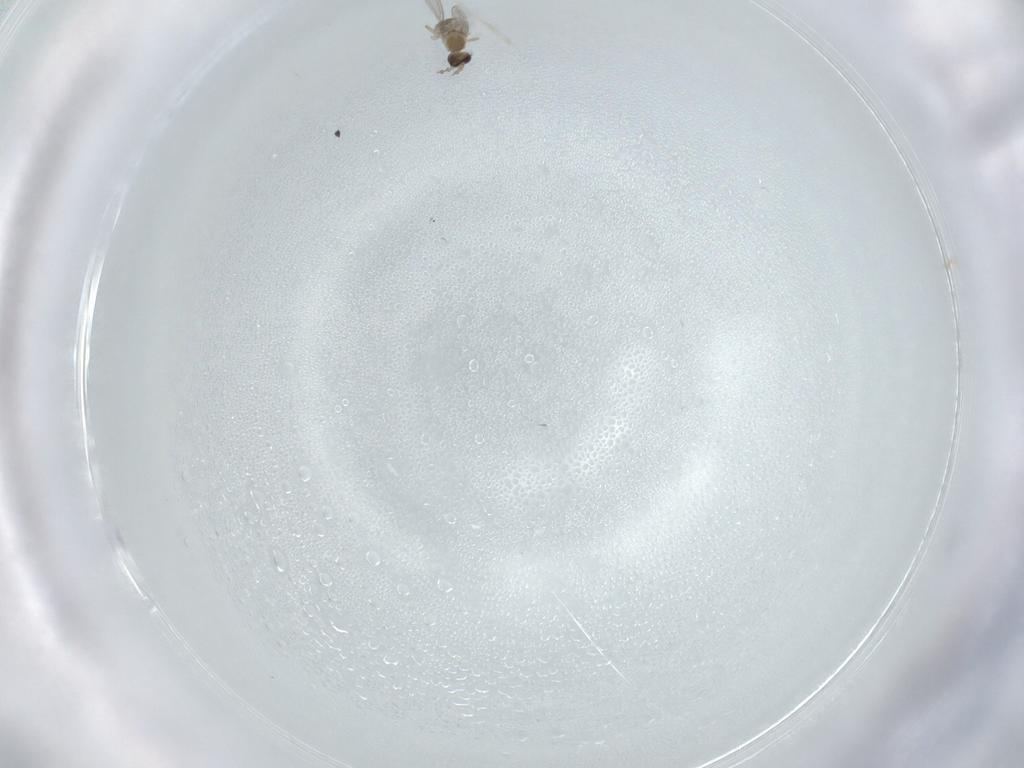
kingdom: Animalia
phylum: Arthropoda
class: Insecta
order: Diptera
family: Cecidomyiidae
